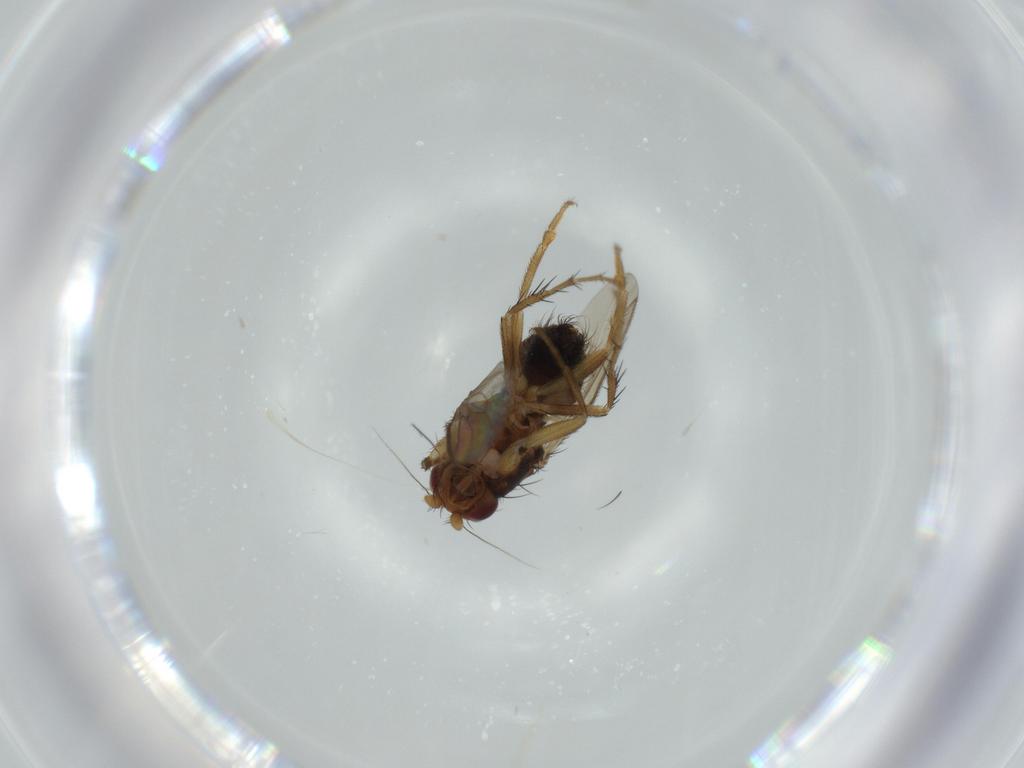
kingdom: Animalia
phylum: Arthropoda
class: Insecta
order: Diptera
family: Sphaeroceridae
